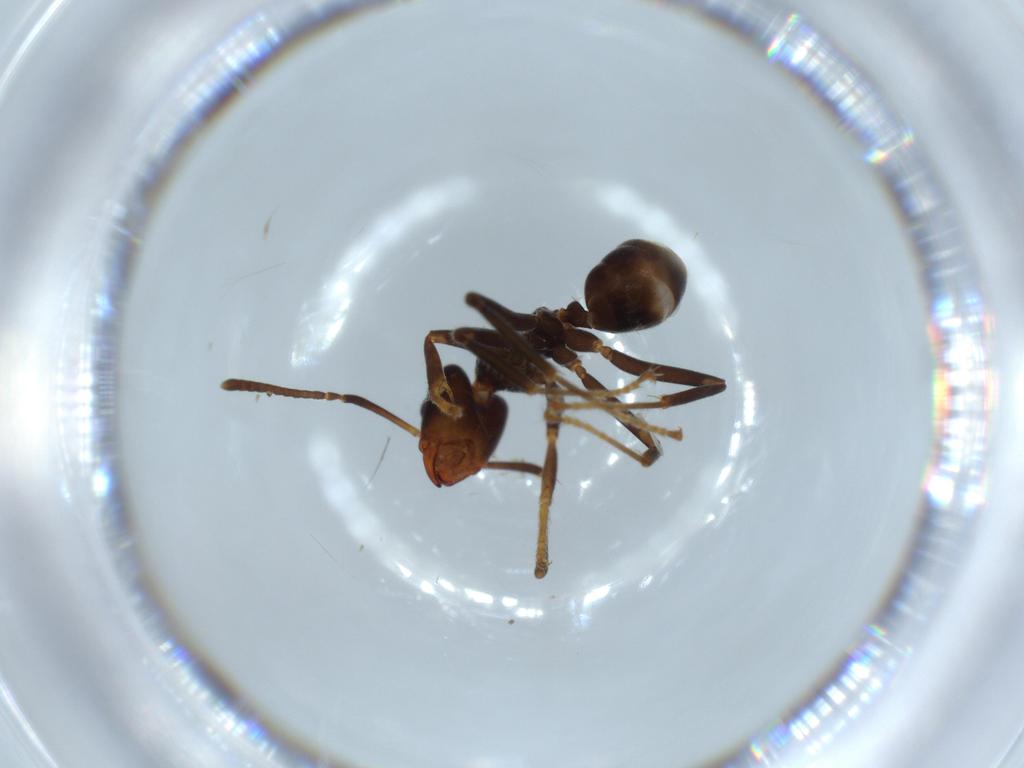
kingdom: Animalia
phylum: Arthropoda
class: Insecta
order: Hymenoptera
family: Formicidae
